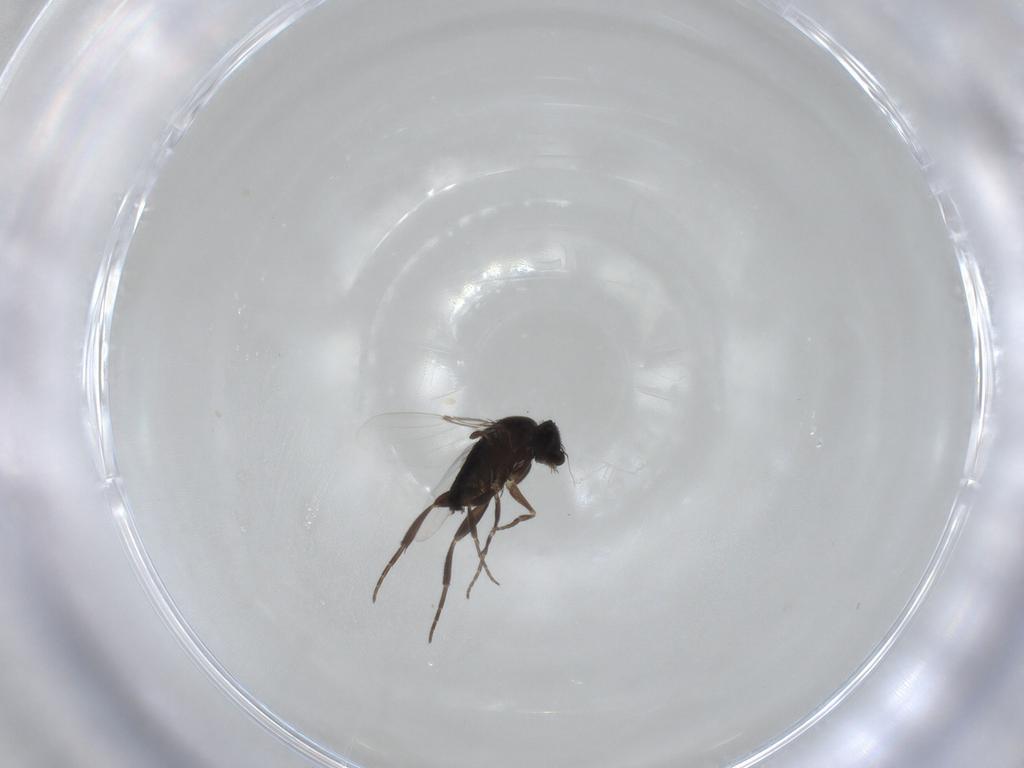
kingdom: Animalia
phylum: Arthropoda
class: Insecta
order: Diptera
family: Phoridae
